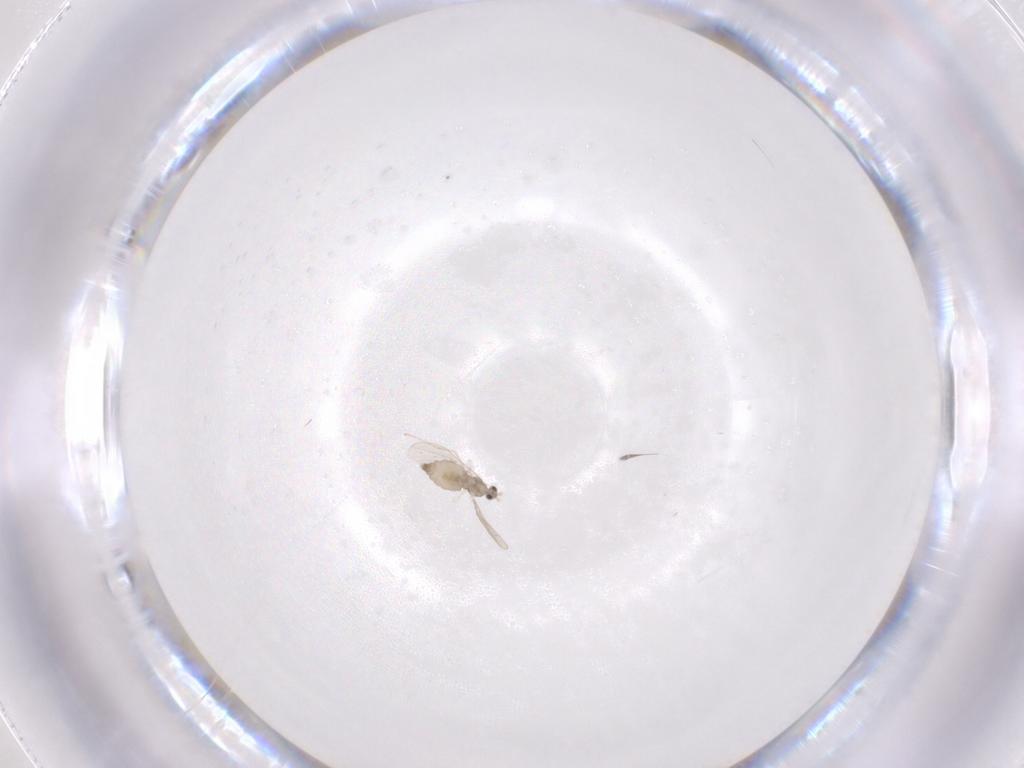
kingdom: Animalia
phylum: Arthropoda
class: Insecta
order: Diptera
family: Cecidomyiidae
